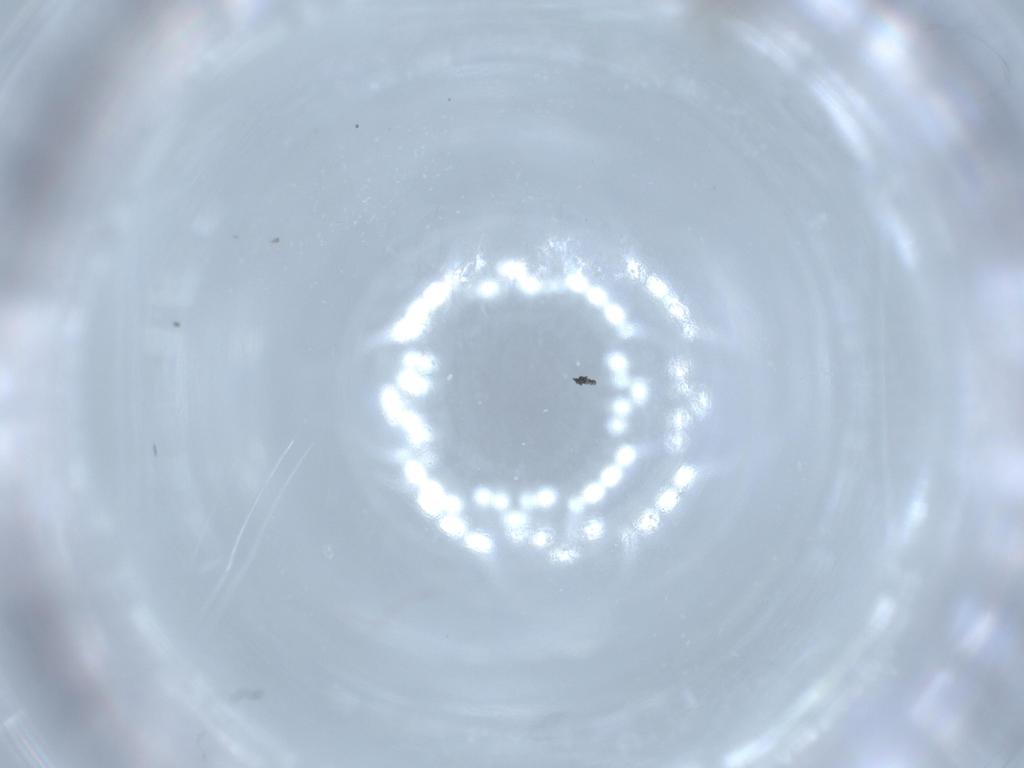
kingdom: Animalia
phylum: Arthropoda
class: Insecta
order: Diptera
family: Cecidomyiidae
